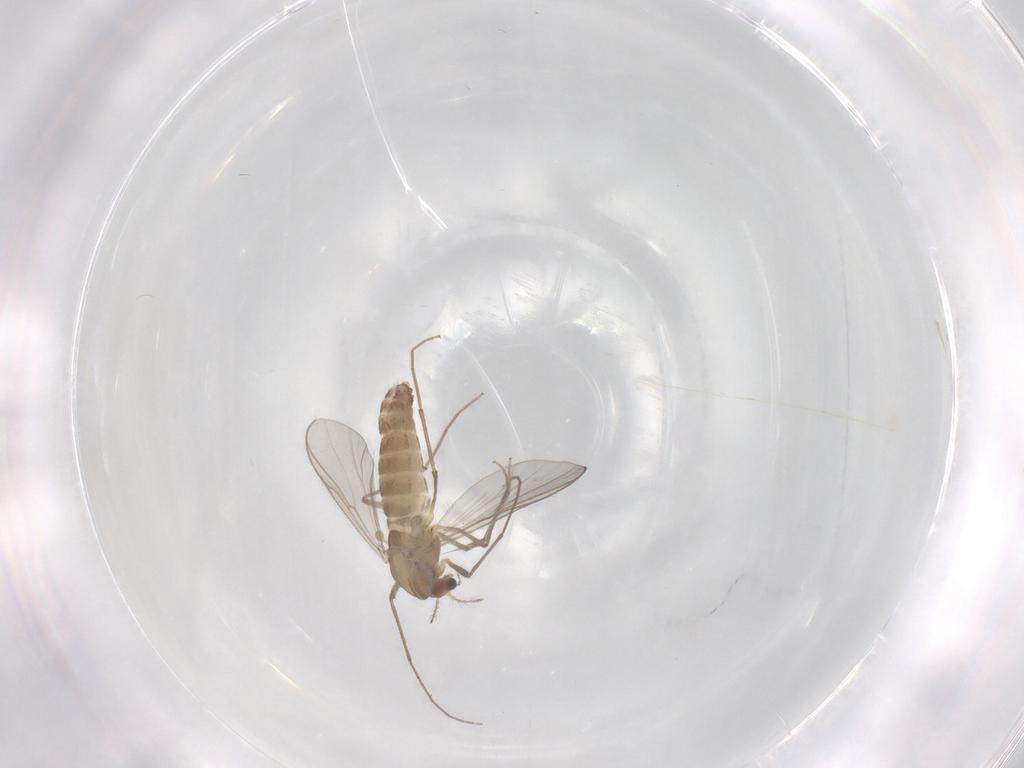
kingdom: Animalia
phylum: Arthropoda
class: Insecta
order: Diptera
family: Chironomidae
